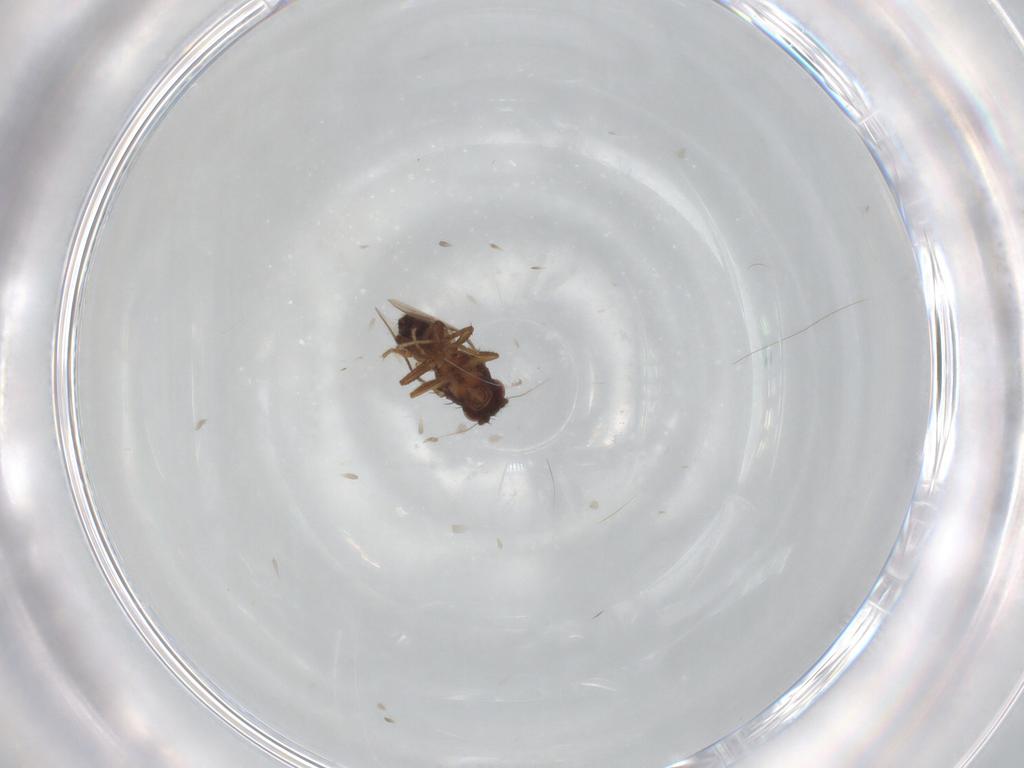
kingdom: Animalia
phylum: Arthropoda
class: Insecta
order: Diptera
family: Sphaeroceridae
